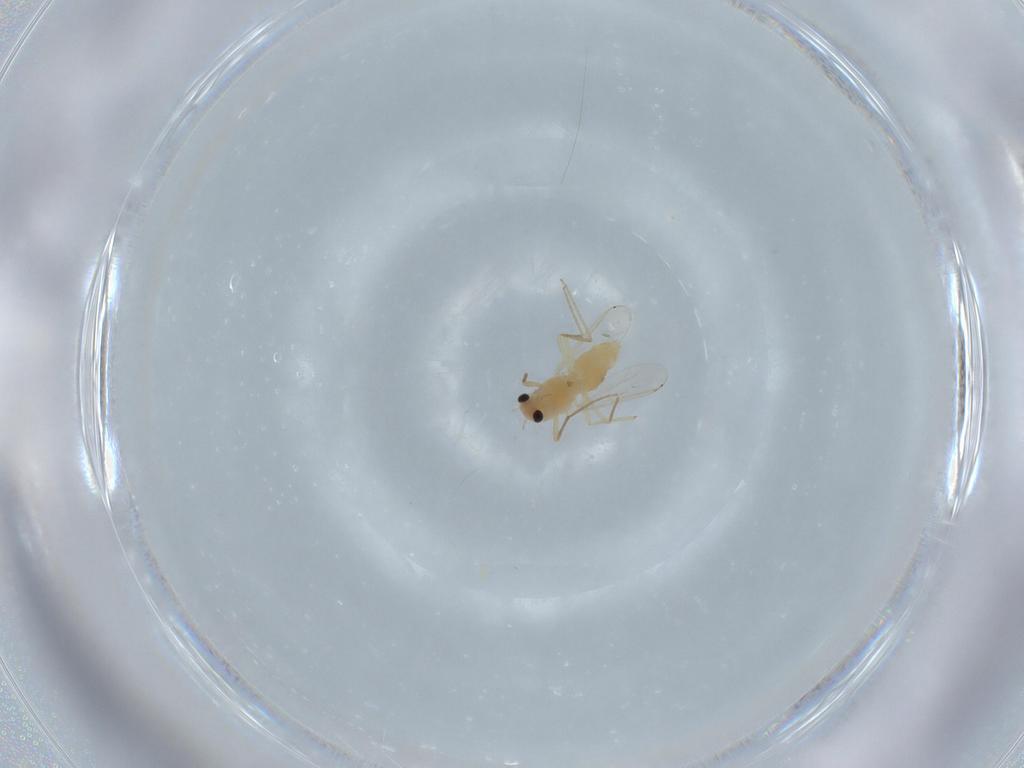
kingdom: Animalia
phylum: Arthropoda
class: Insecta
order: Diptera
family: Chironomidae
